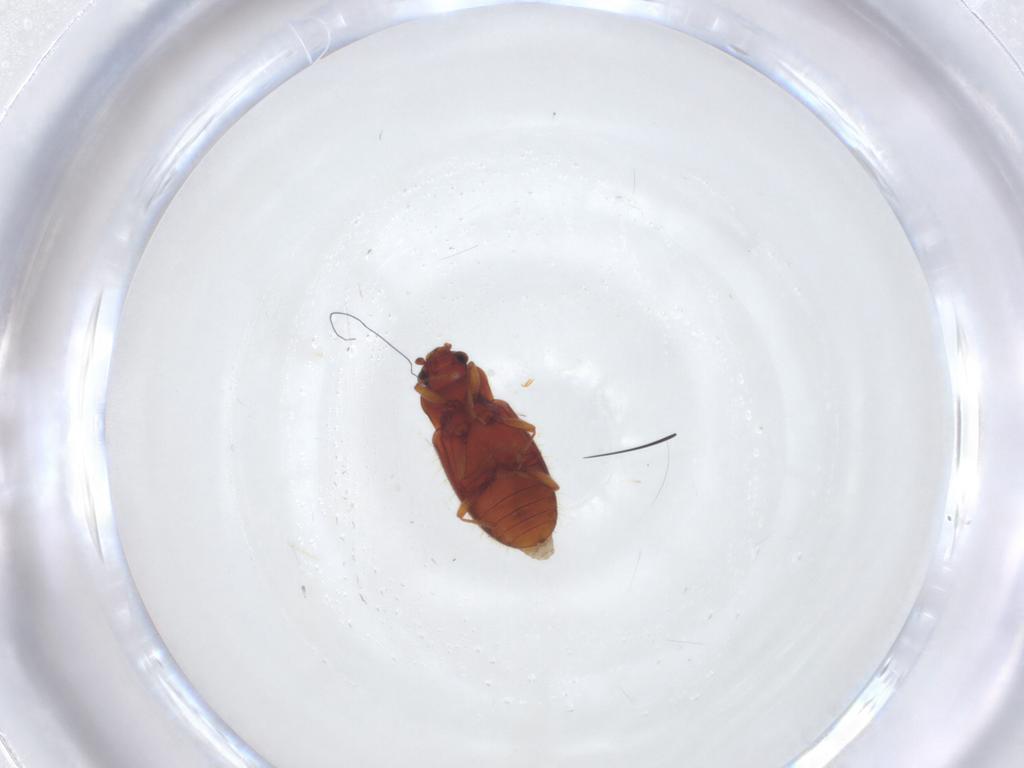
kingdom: Animalia
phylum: Arthropoda
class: Insecta
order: Coleoptera
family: Cryptophagidae
